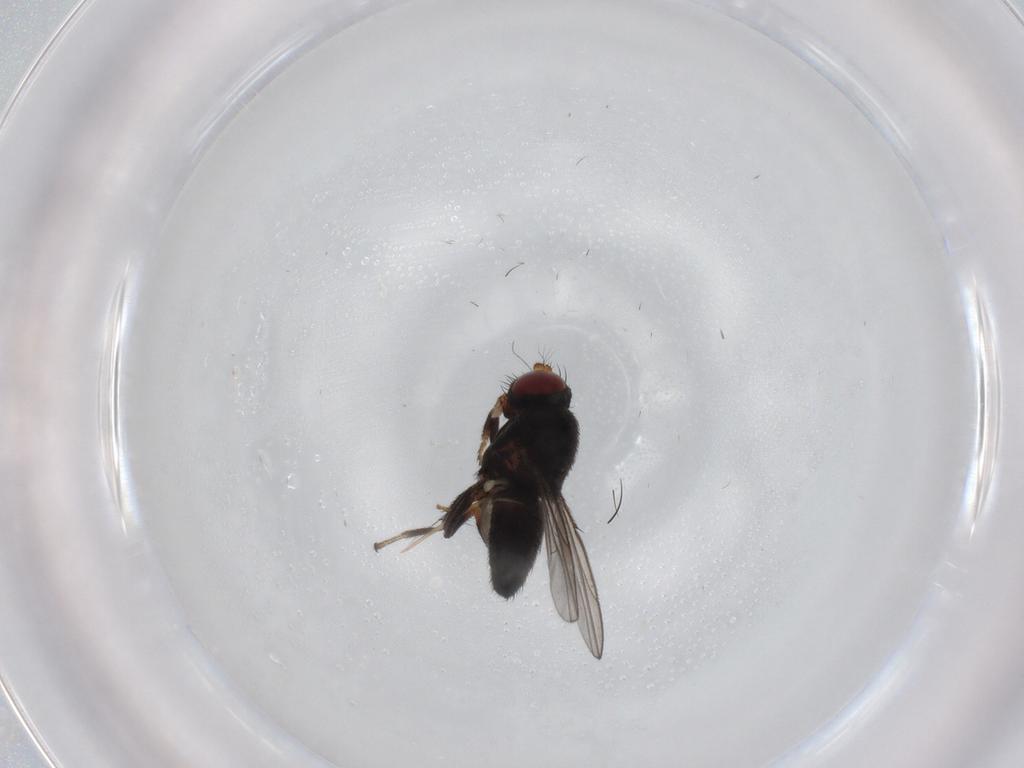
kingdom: Animalia
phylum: Arthropoda
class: Insecta
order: Diptera
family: Ephydridae
